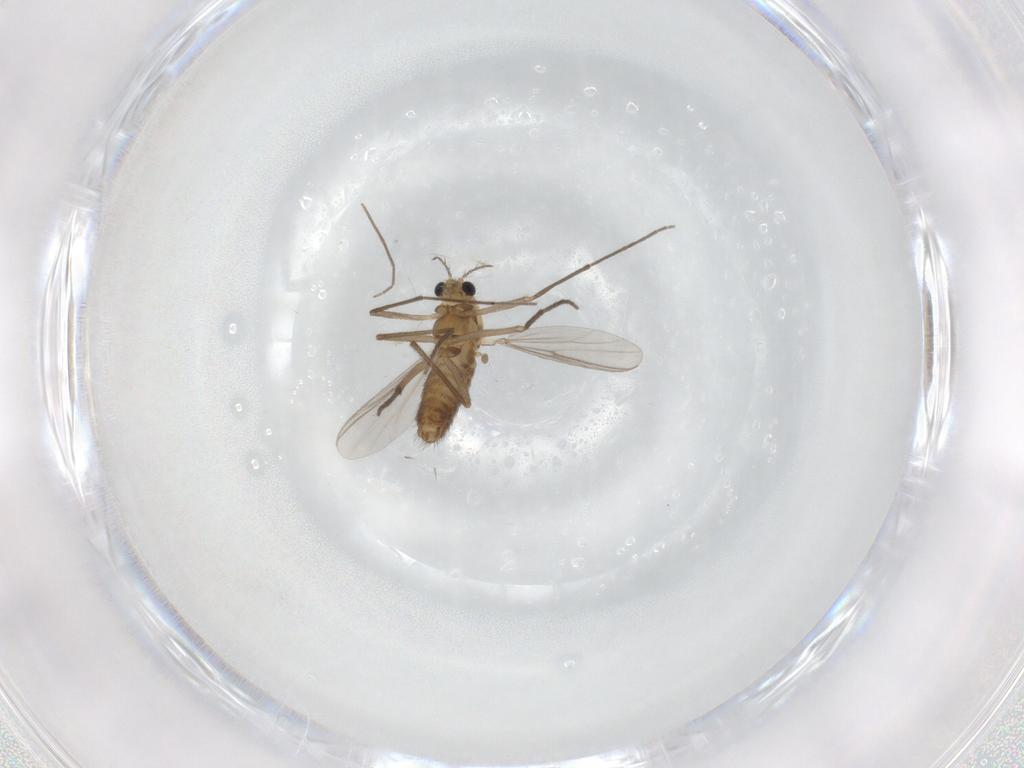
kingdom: Animalia
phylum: Arthropoda
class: Insecta
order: Diptera
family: Chironomidae
